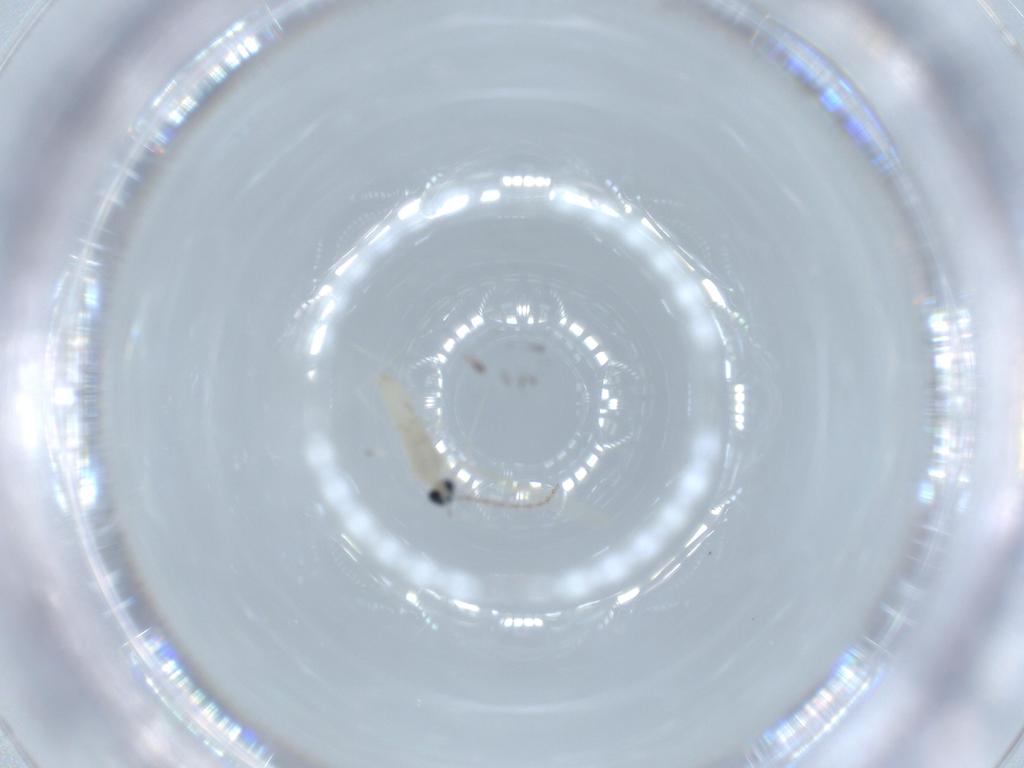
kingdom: Animalia
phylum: Arthropoda
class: Insecta
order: Diptera
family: Cecidomyiidae
